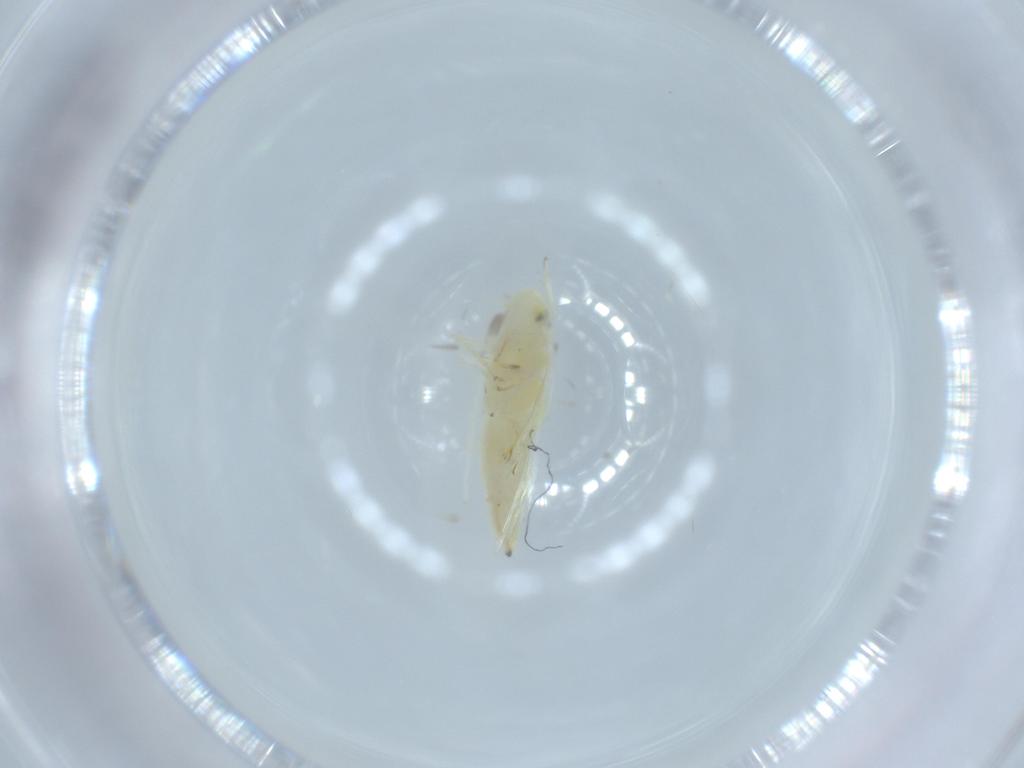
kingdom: Animalia
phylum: Arthropoda
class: Insecta
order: Hemiptera
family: Cicadellidae
